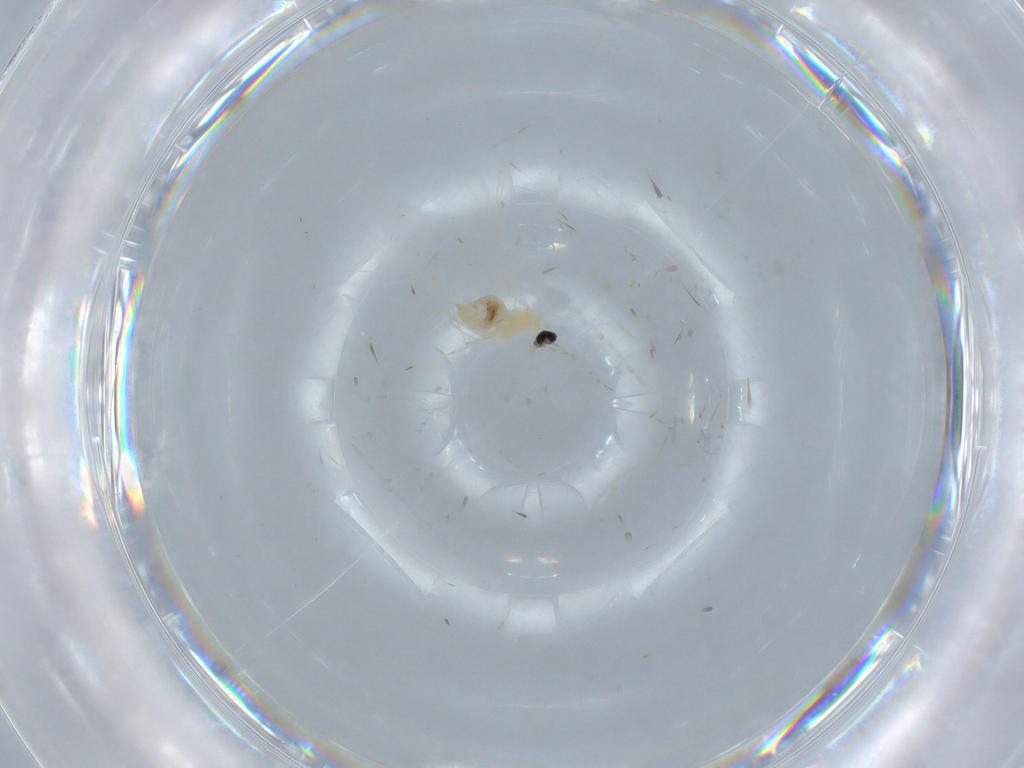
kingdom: Animalia
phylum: Arthropoda
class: Insecta
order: Diptera
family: Cecidomyiidae
